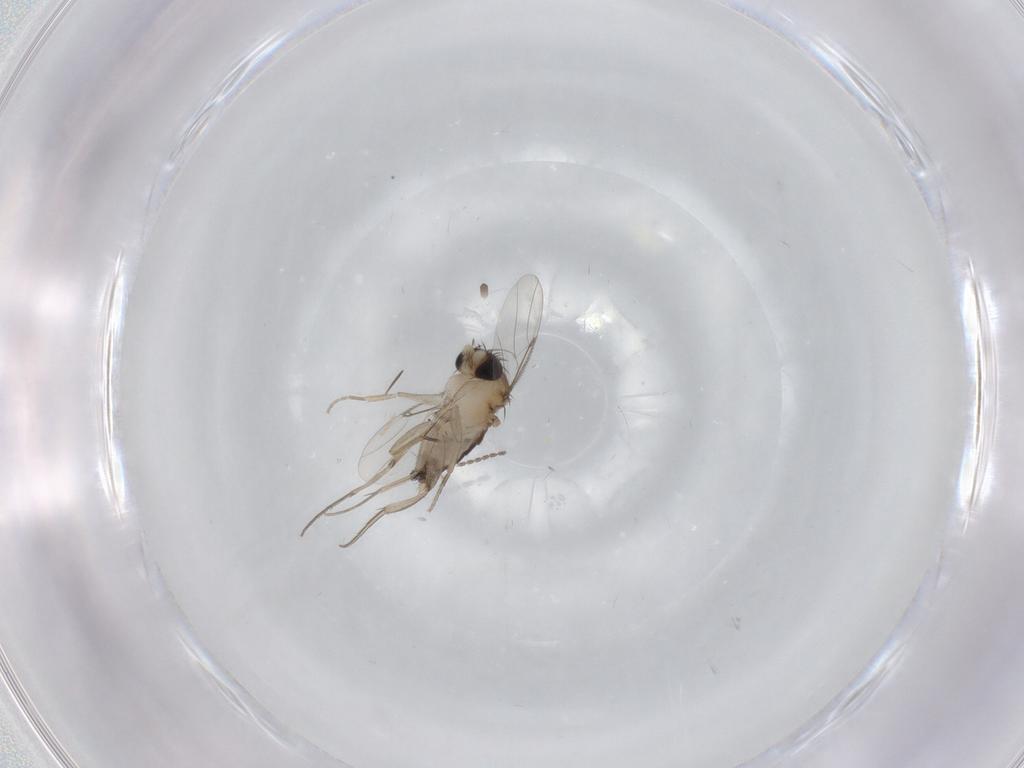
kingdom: Animalia
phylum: Arthropoda
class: Insecta
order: Diptera
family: Phoridae
